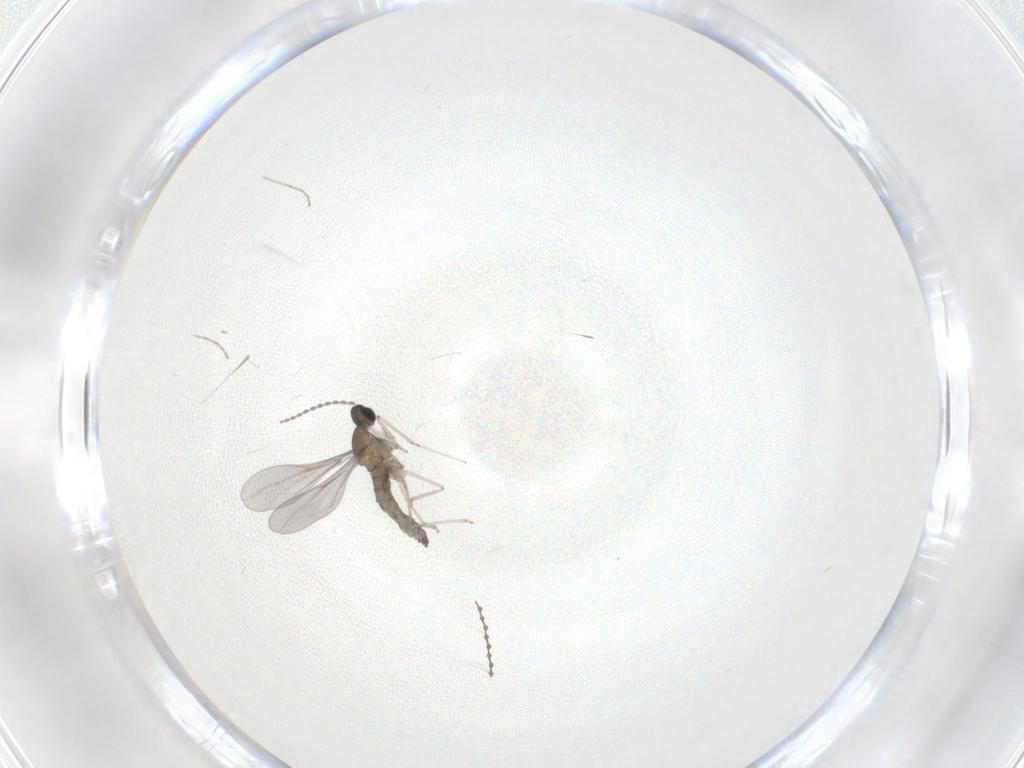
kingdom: Animalia
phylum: Arthropoda
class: Insecta
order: Diptera
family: Cecidomyiidae
